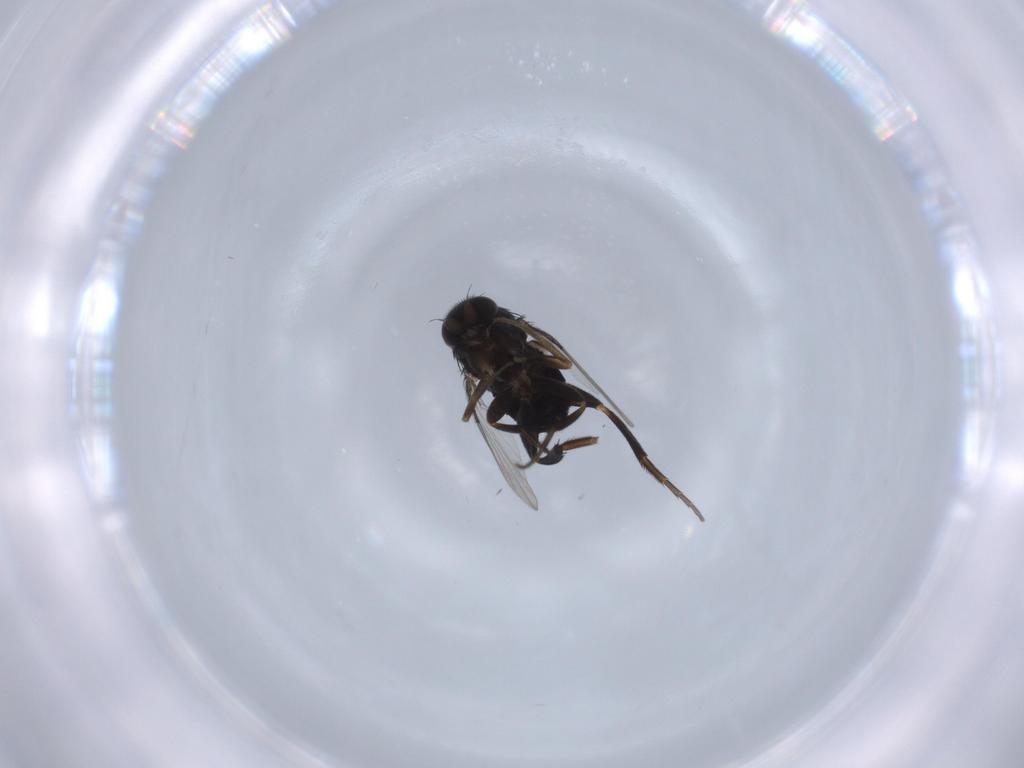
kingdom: Animalia
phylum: Arthropoda
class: Insecta
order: Diptera
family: Phoridae
